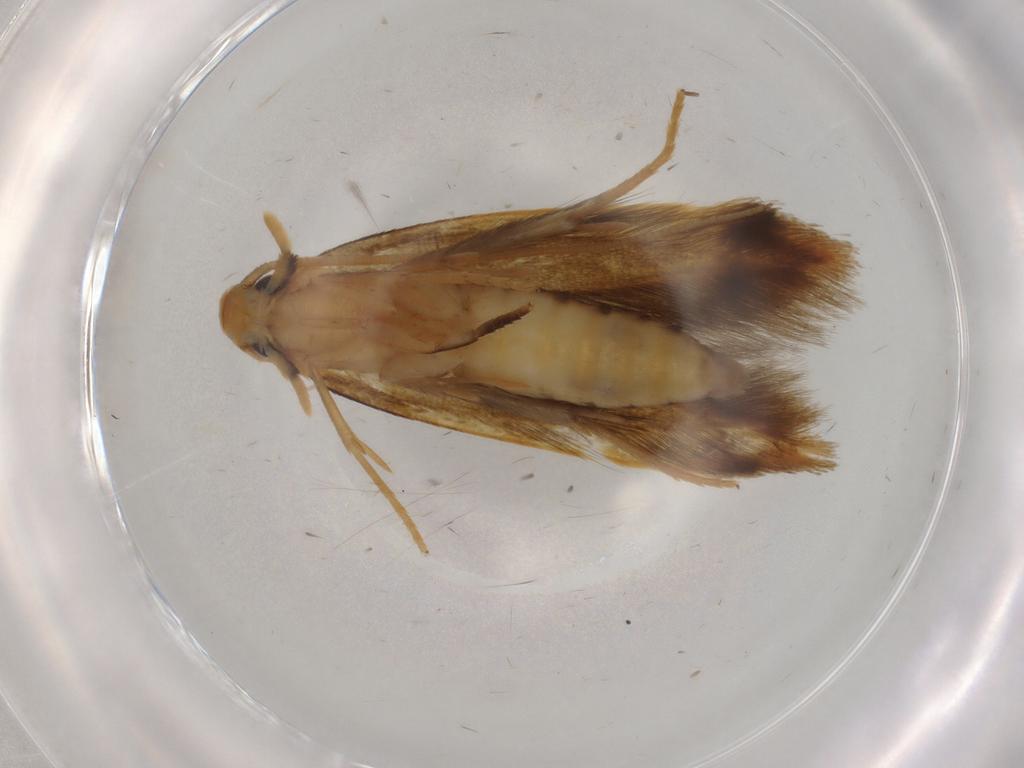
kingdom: Animalia
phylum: Arthropoda
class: Insecta
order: Lepidoptera
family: Tineidae
